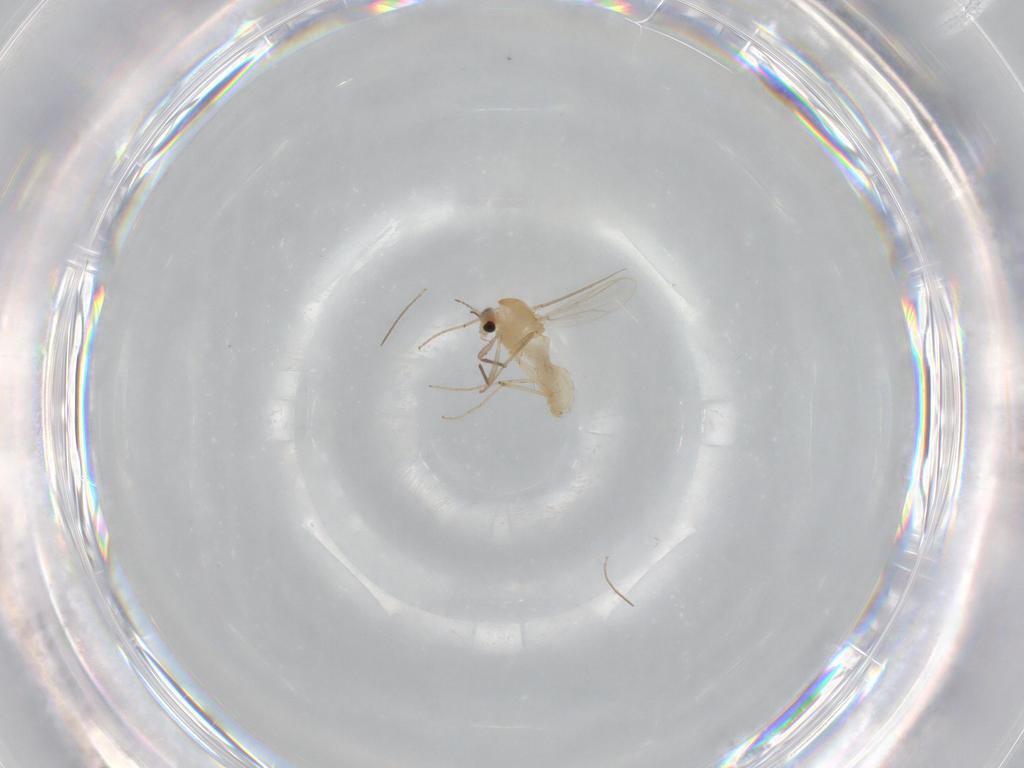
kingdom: Animalia
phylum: Arthropoda
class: Insecta
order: Diptera
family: Chironomidae
